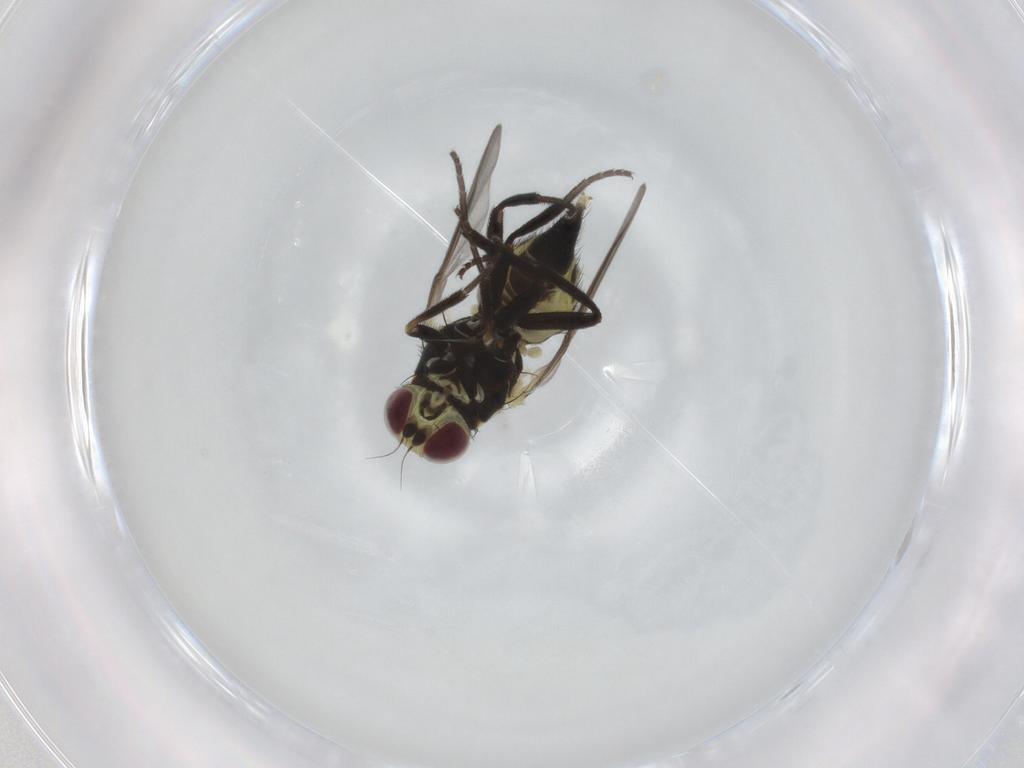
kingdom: Animalia
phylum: Arthropoda
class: Insecta
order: Diptera
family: Agromyzidae
